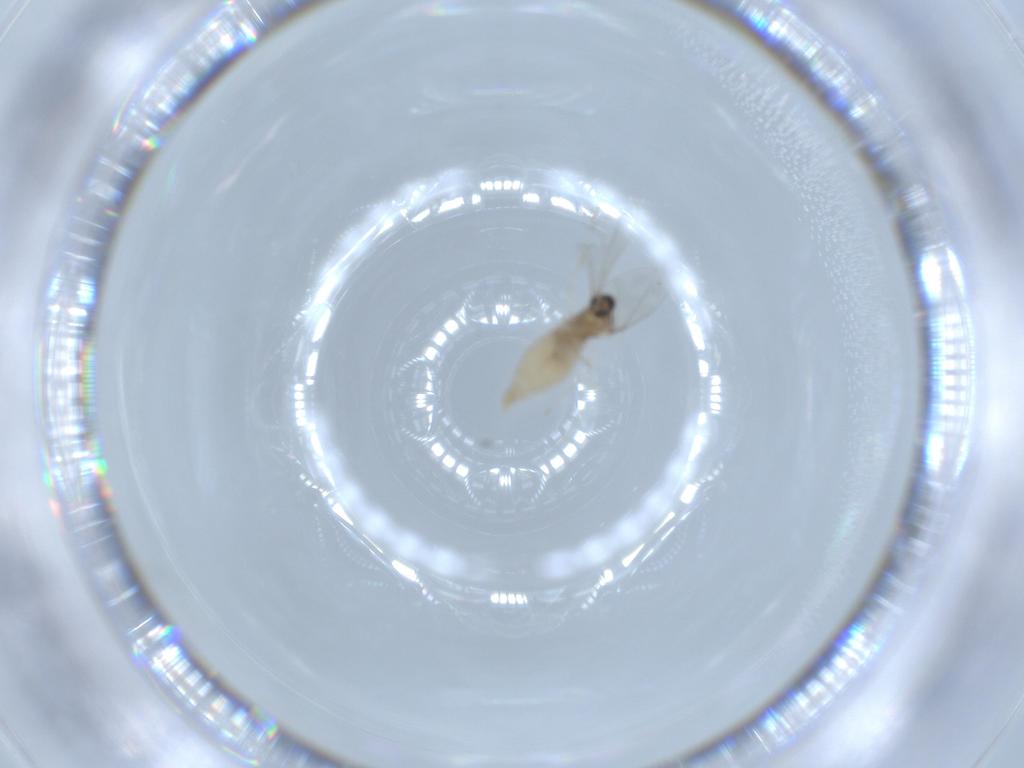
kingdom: Animalia
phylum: Arthropoda
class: Insecta
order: Diptera
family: Cecidomyiidae
